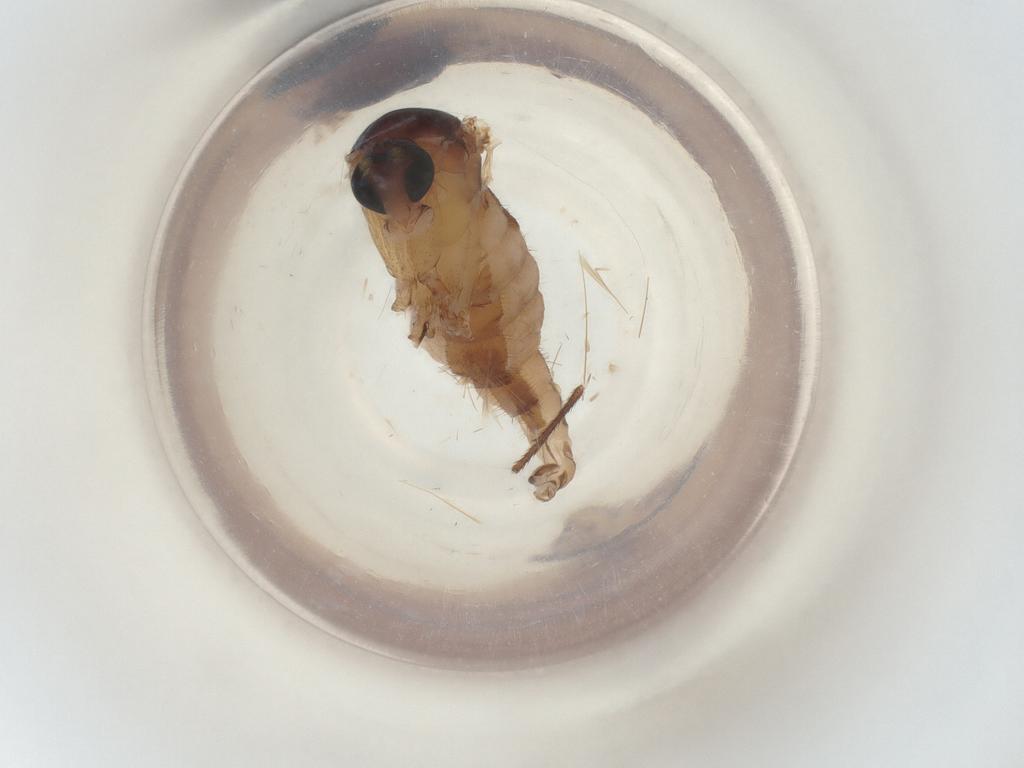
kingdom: Animalia
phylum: Arthropoda
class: Insecta
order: Diptera
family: Sciaridae
